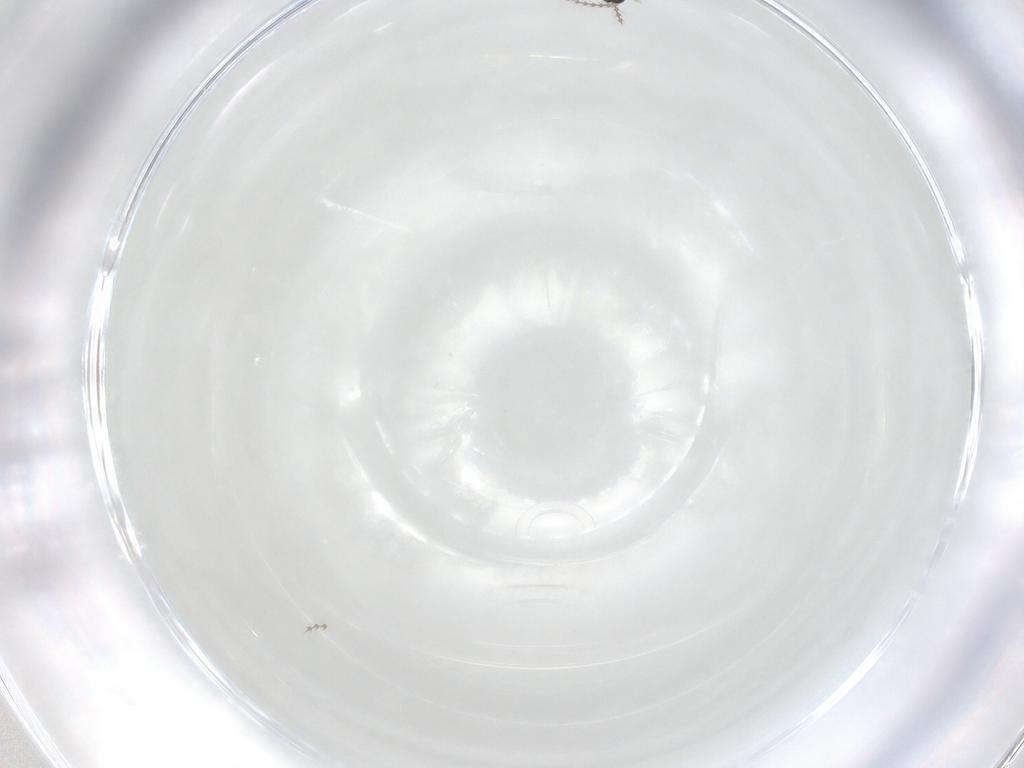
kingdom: Animalia
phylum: Arthropoda
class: Insecta
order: Diptera
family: Cecidomyiidae
